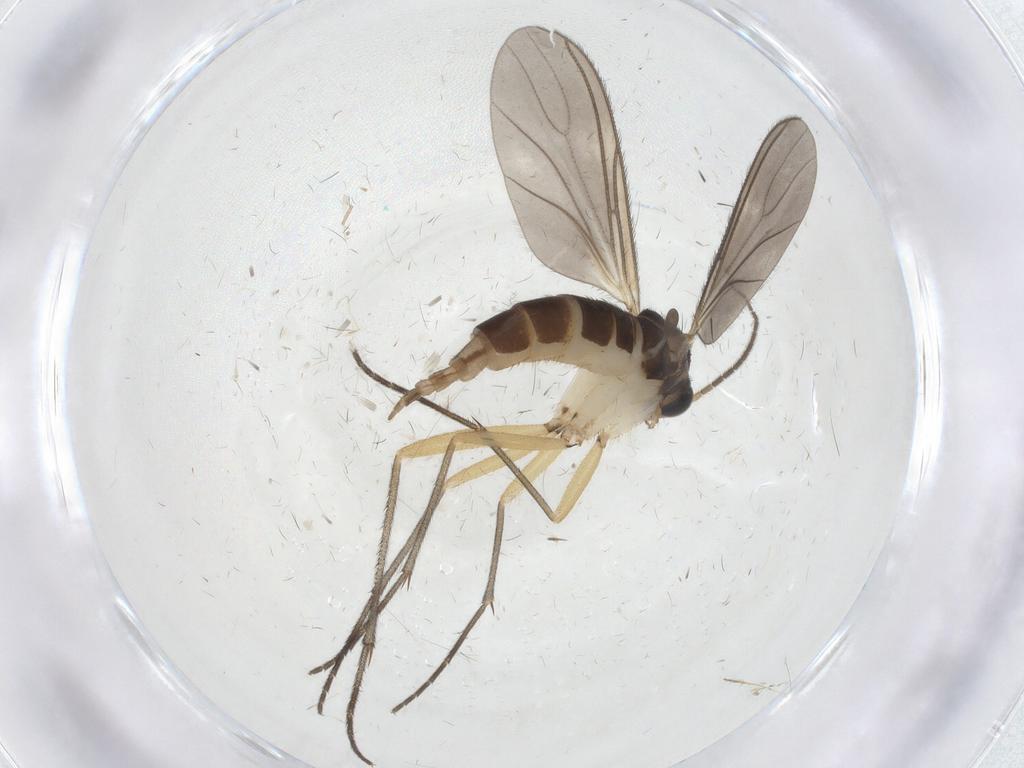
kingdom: Animalia
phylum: Arthropoda
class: Insecta
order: Diptera
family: Sciaridae
